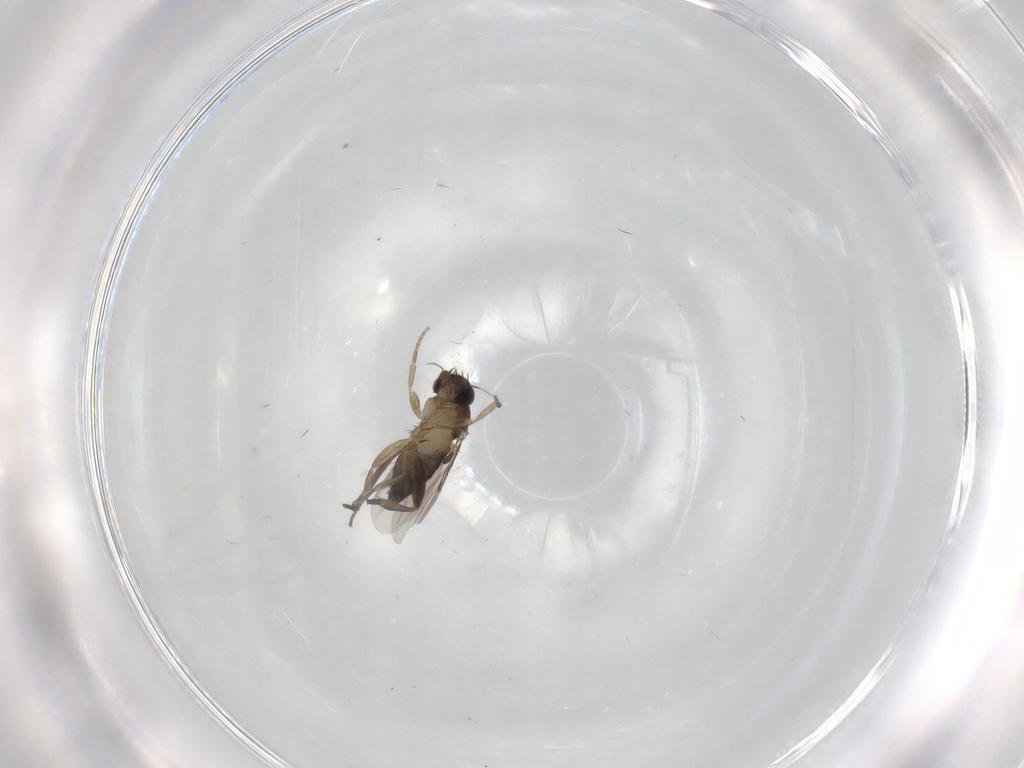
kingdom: Animalia
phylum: Arthropoda
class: Insecta
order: Diptera
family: Phoridae
